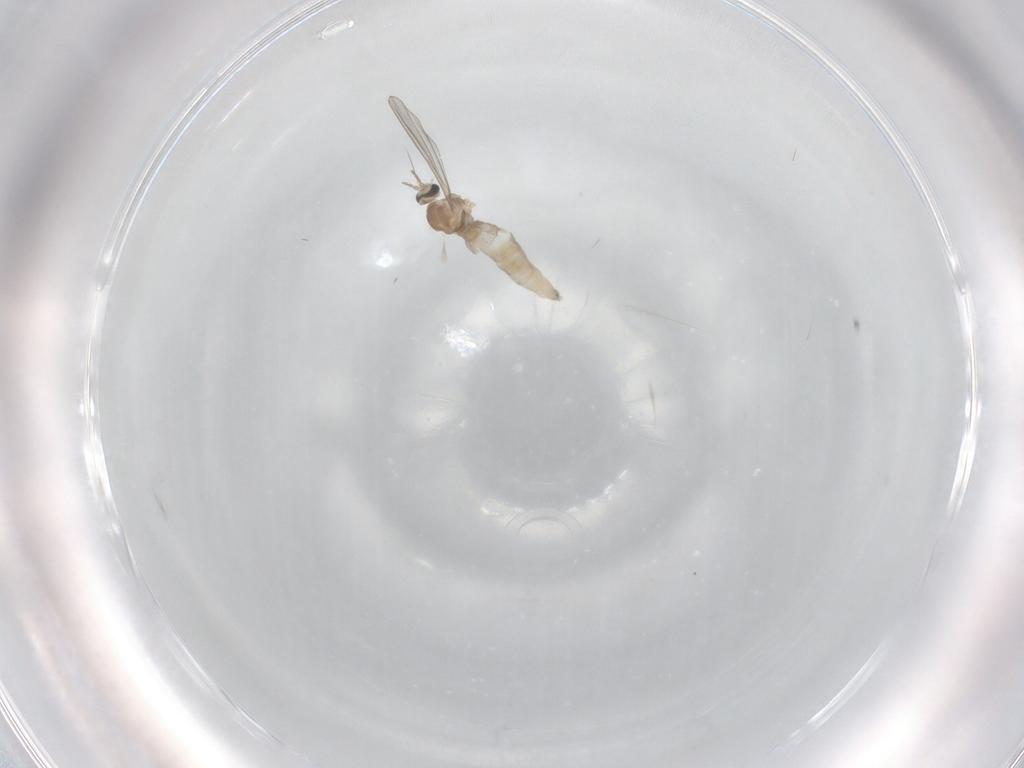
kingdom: Animalia
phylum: Arthropoda
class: Insecta
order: Diptera
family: Cecidomyiidae
